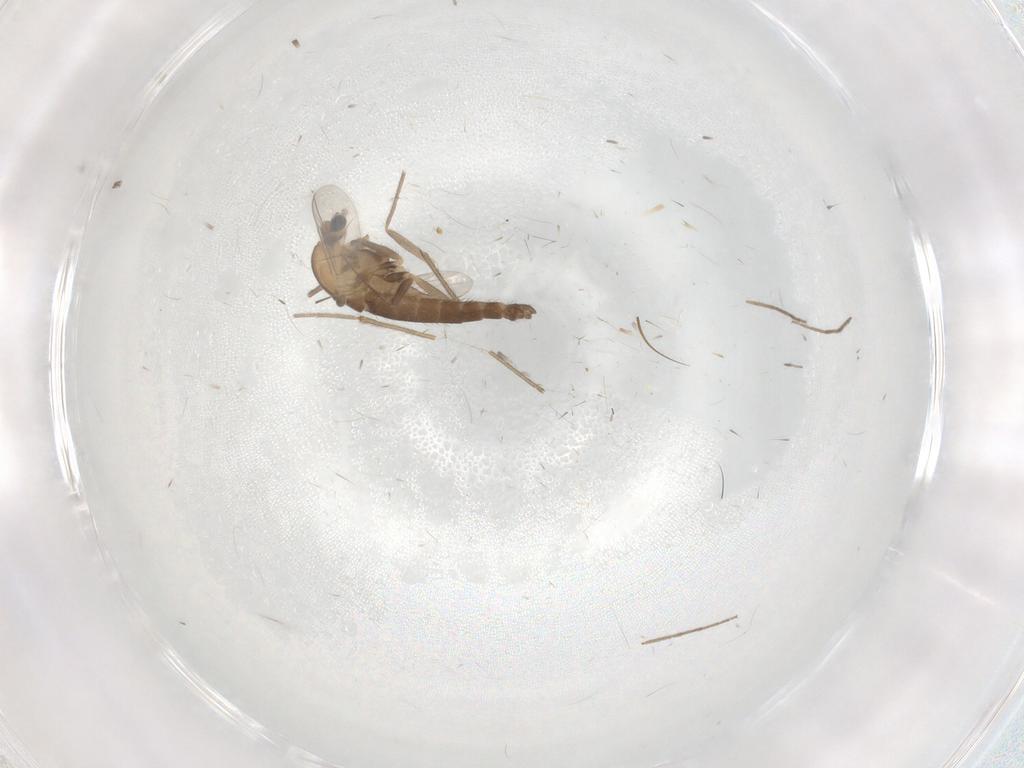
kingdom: Animalia
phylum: Arthropoda
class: Insecta
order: Diptera
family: Chironomidae
